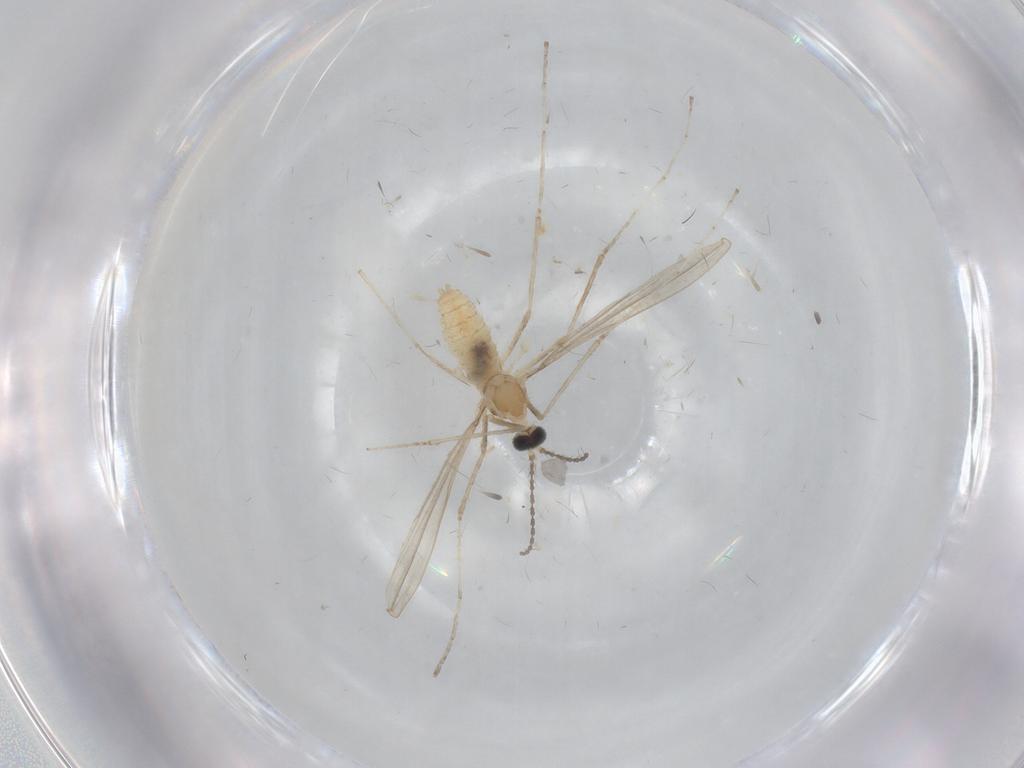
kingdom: Animalia
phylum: Arthropoda
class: Insecta
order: Diptera
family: Cecidomyiidae
